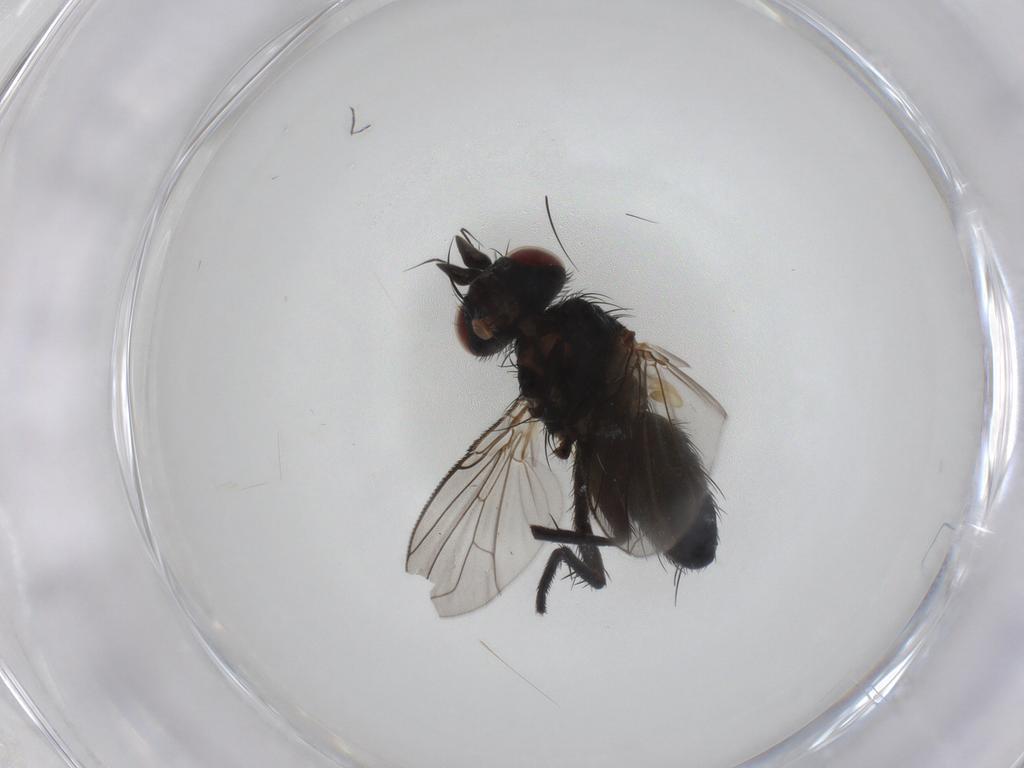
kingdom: Animalia
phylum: Arthropoda
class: Insecta
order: Diptera
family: Tachinidae
